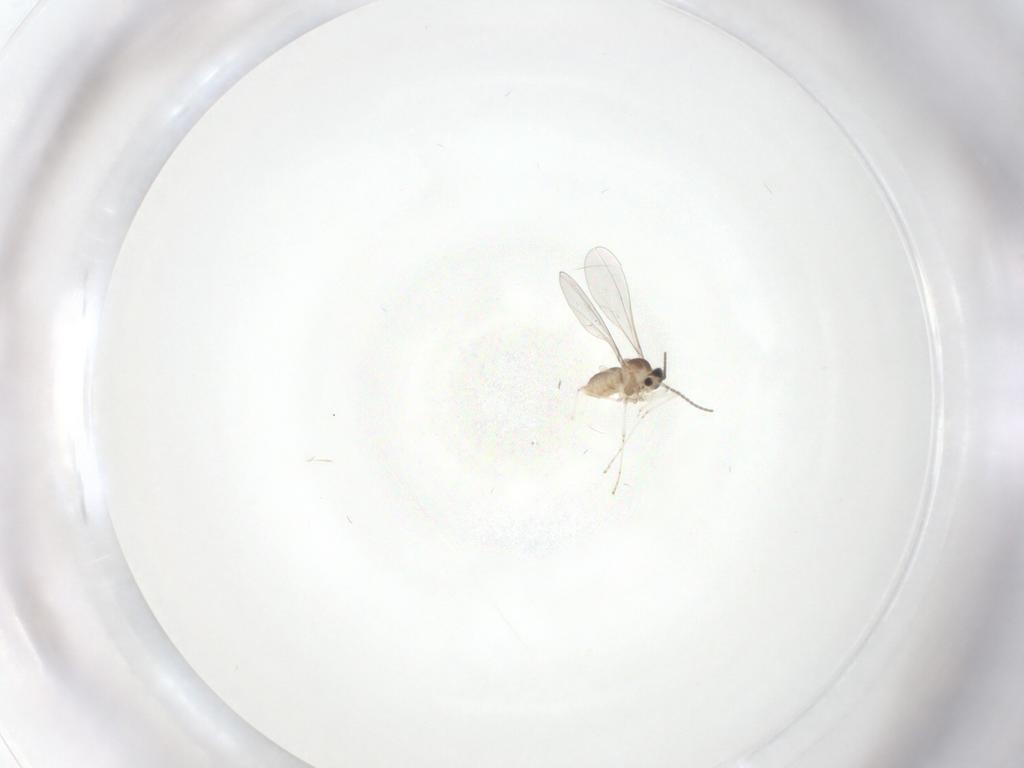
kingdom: Animalia
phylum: Arthropoda
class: Insecta
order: Diptera
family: Cecidomyiidae
